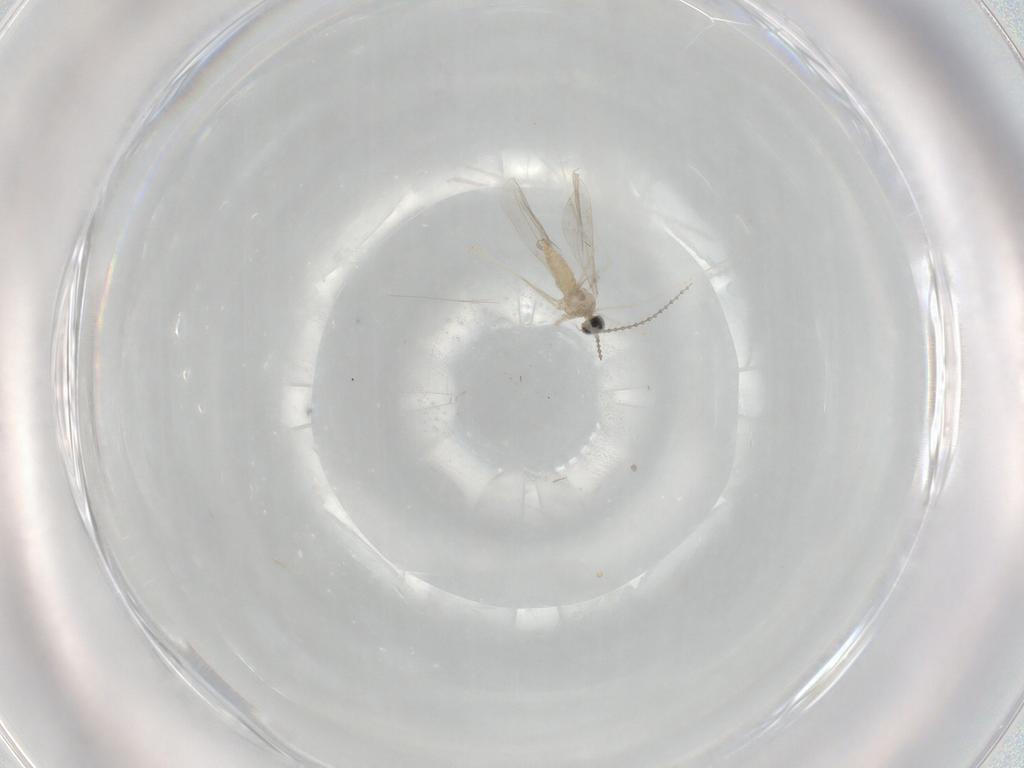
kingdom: Animalia
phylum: Arthropoda
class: Insecta
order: Diptera
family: Cecidomyiidae
